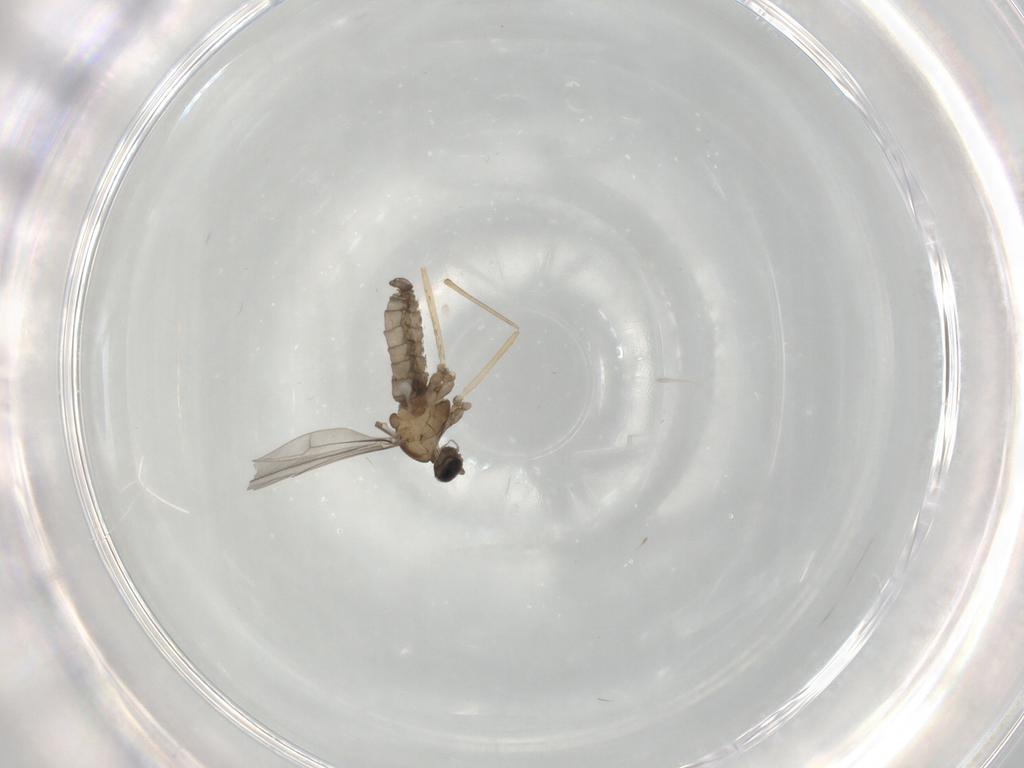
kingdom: Animalia
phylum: Arthropoda
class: Insecta
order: Diptera
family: Cecidomyiidae
